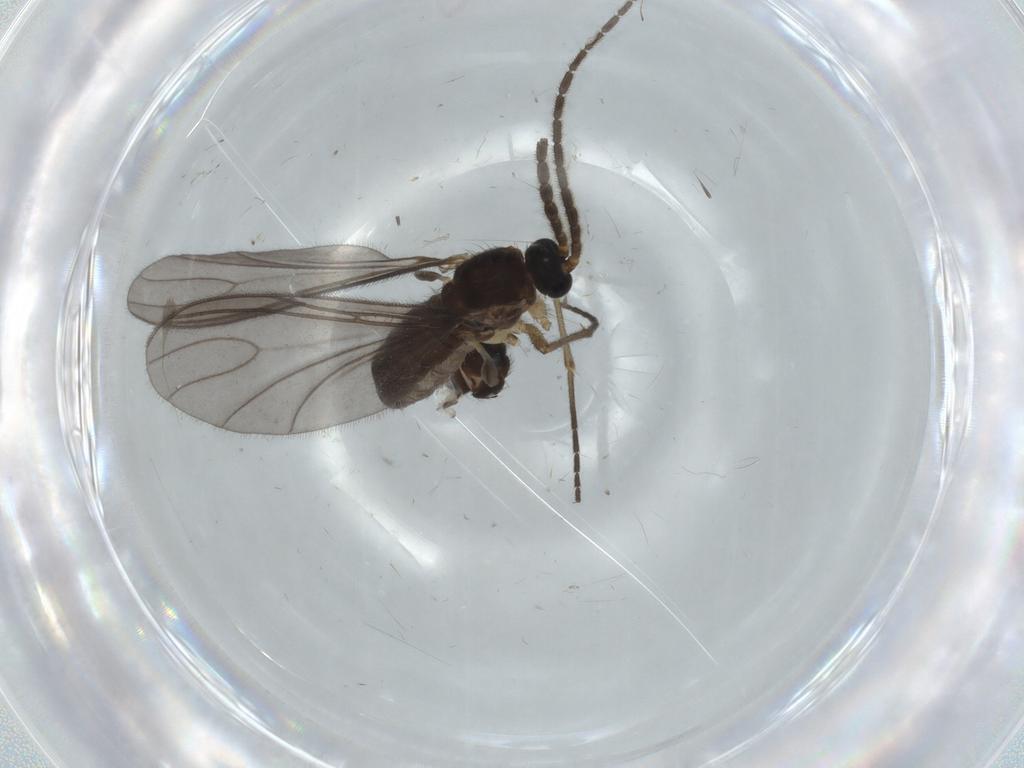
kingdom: Animalia
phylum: Arthropoda
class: Insecta
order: Diptera
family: Sciaridae
